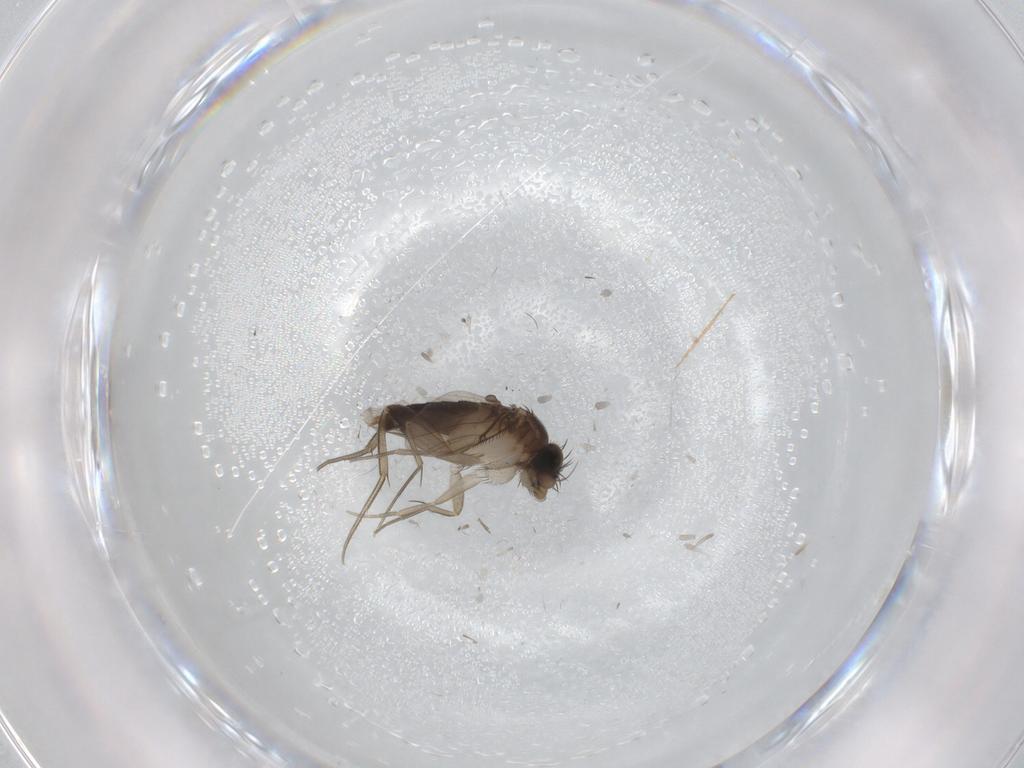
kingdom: Animalia
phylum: Arthropoda
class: Insecta
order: Diptera
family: Phoridae
